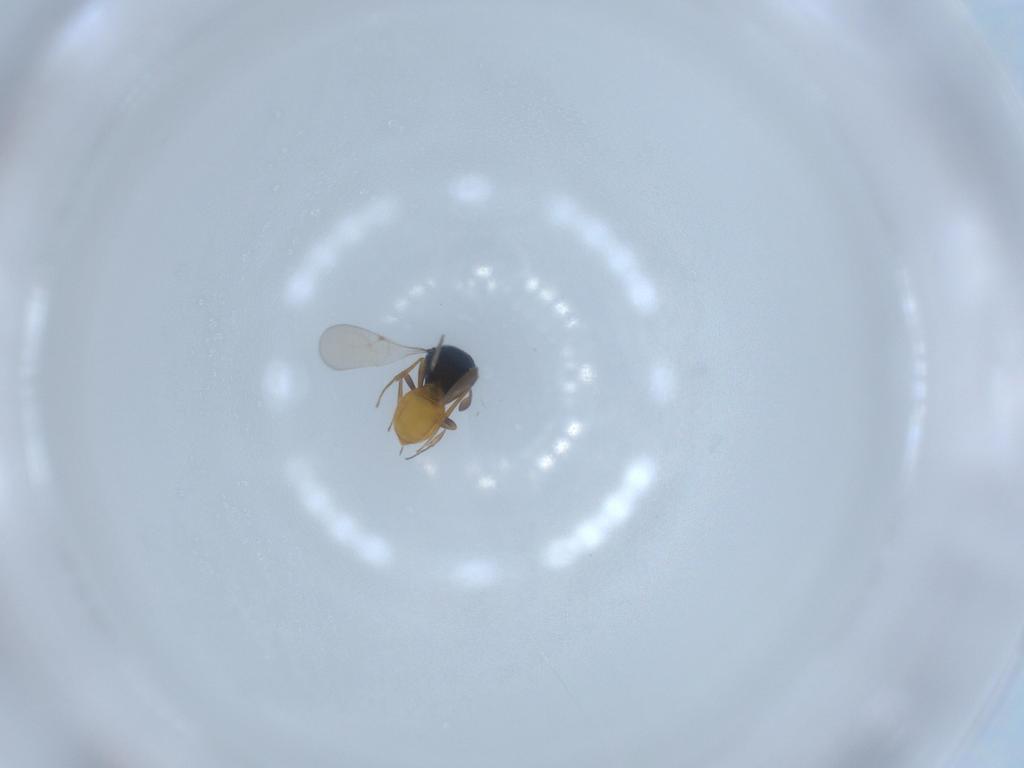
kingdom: Animalia
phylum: Arthropoda
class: Insecta
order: Hymenoptera
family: Scelionidae
